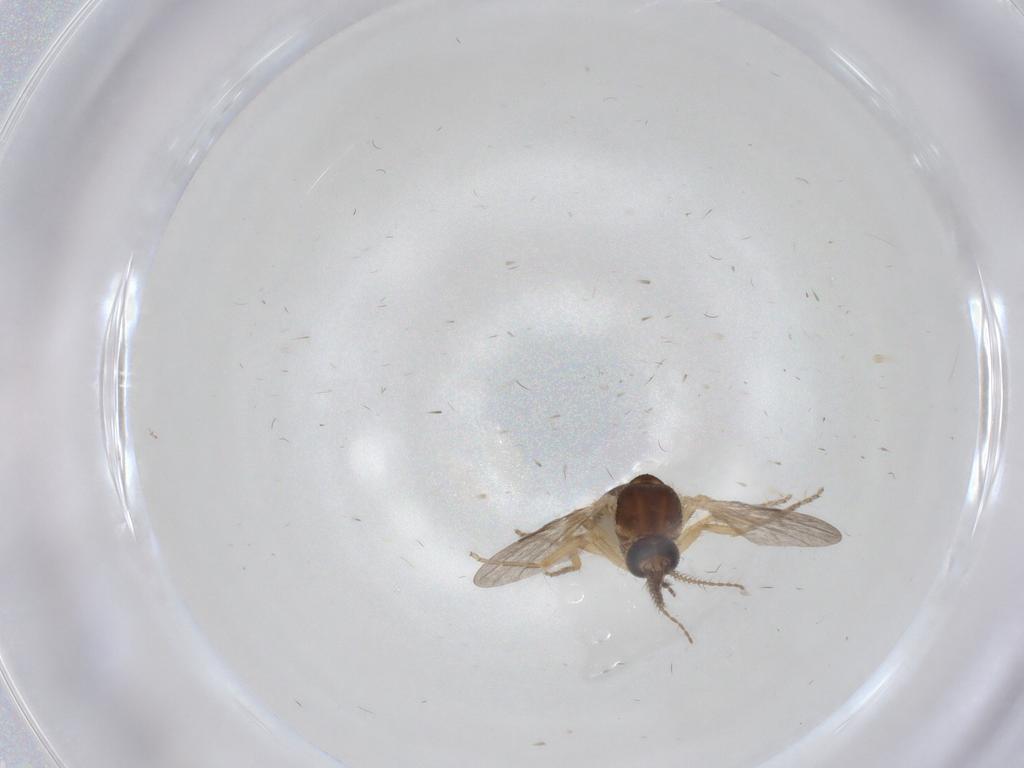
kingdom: Animalia
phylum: Arthropoda
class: Insecta
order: Diptera
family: Ceratopogonidae
